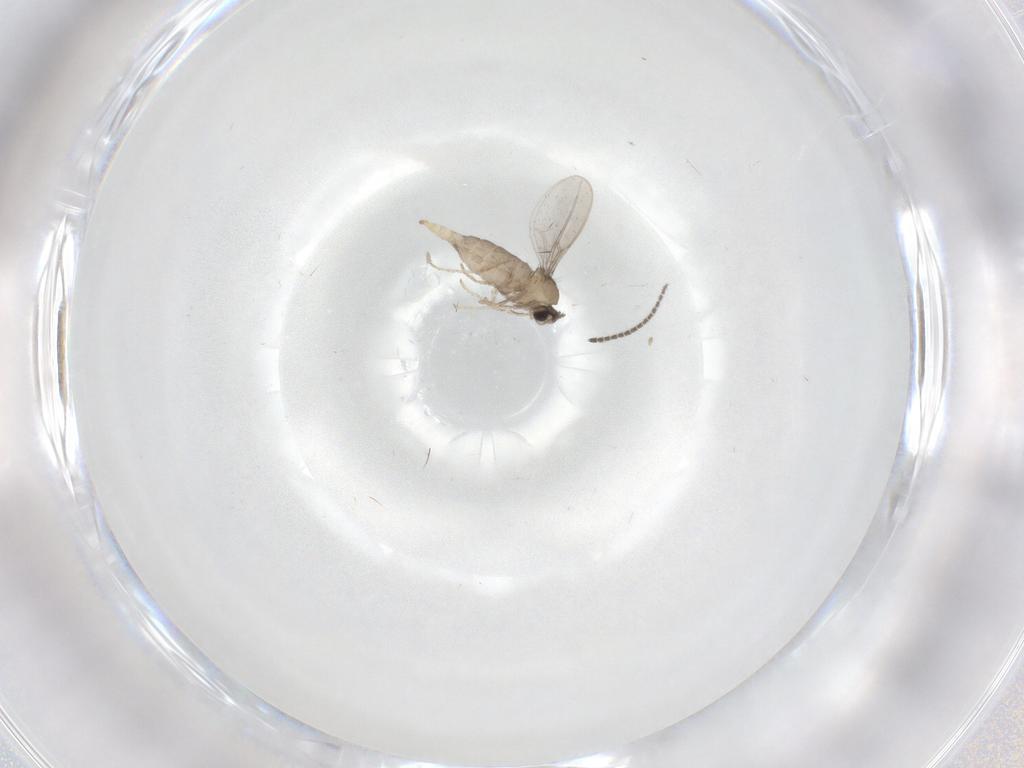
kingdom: Animalia
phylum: Arthropoda
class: Insecta
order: Diptera
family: Cecidomyiidae
